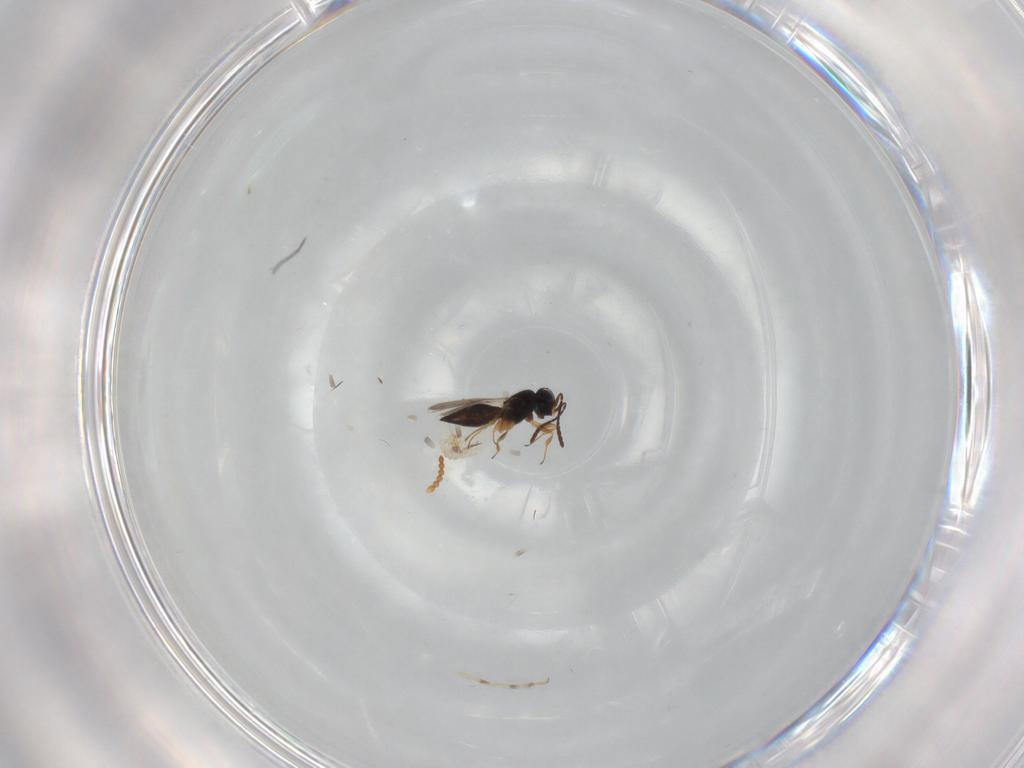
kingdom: Animalia
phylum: Arthropoda
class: Insecta
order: Hymenoptera
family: Scelionidae
